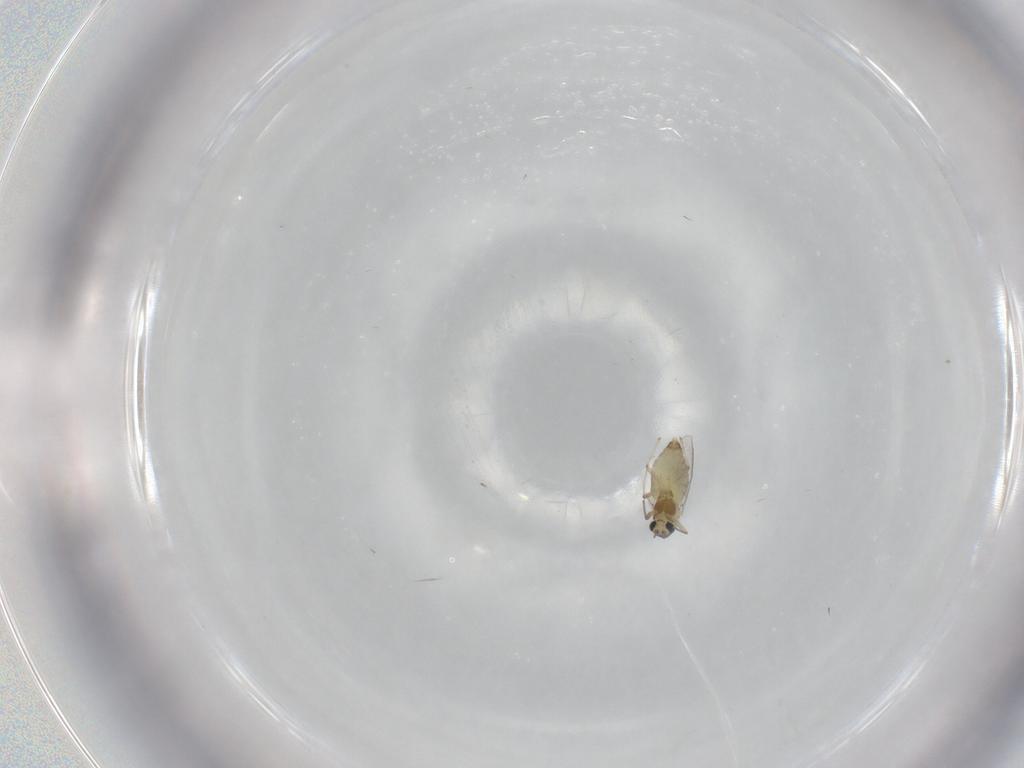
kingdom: Animalia
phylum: Arthropoda
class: Insecta
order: Diptera
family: Chironomidae
